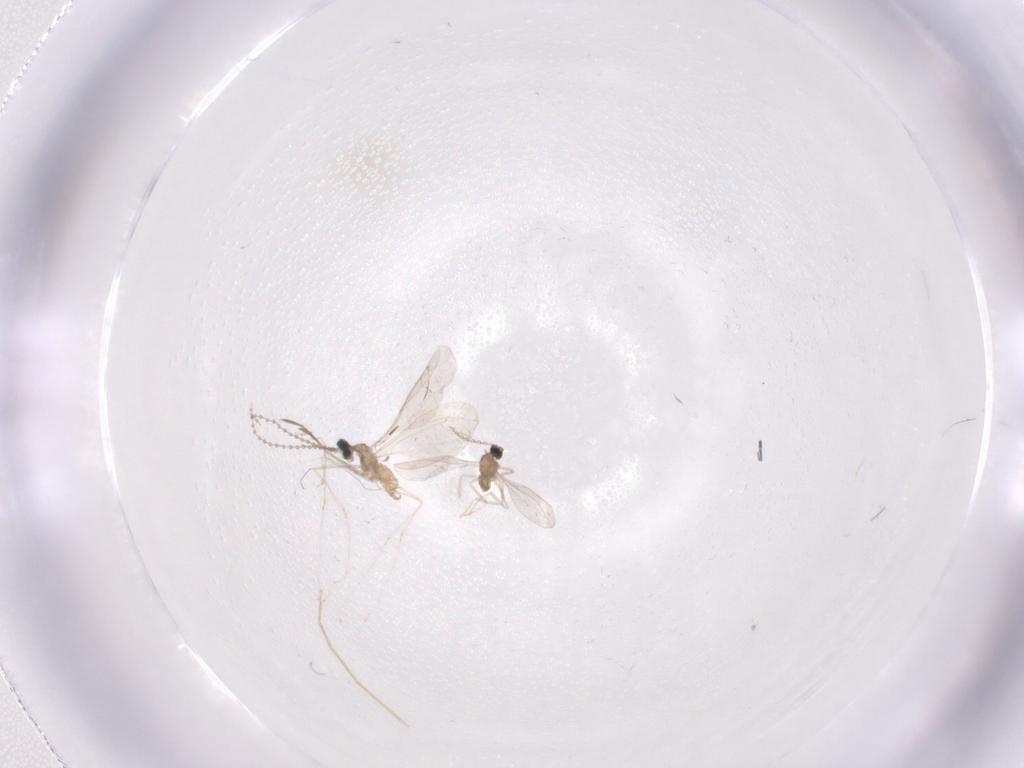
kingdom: Animalia
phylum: Arthropoda
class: Insecta
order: Diptera
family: Cecidomyiidae
